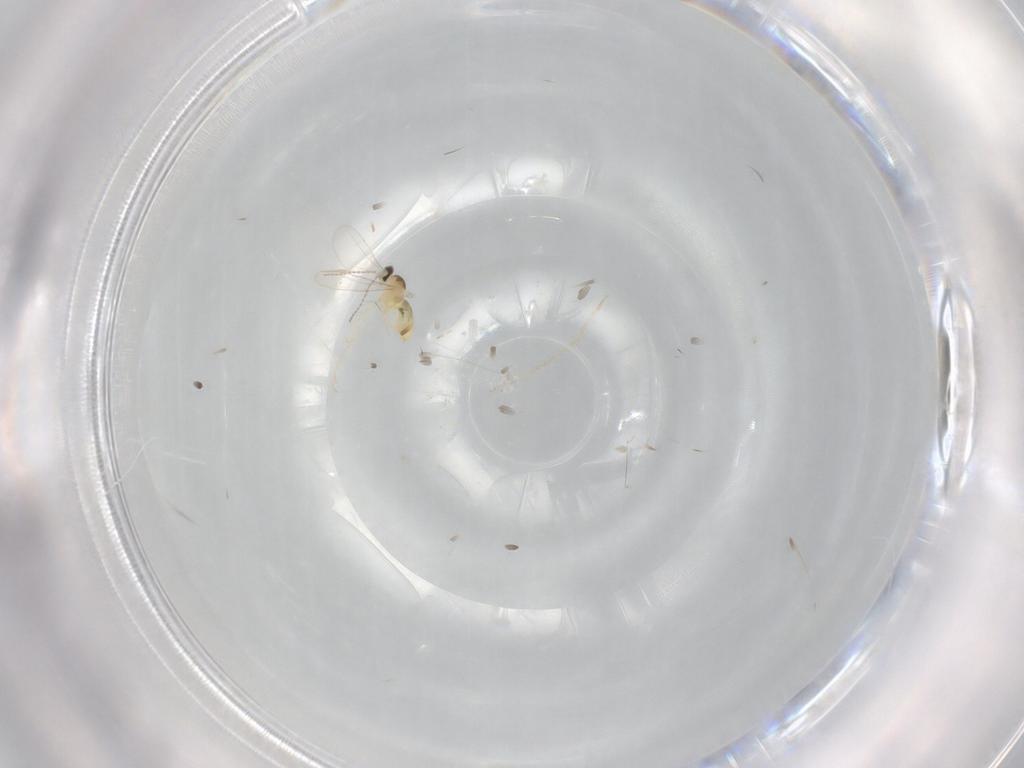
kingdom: Animalia
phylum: Arthropoda
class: Insecta
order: Diptera
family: Cecidomyiidae
